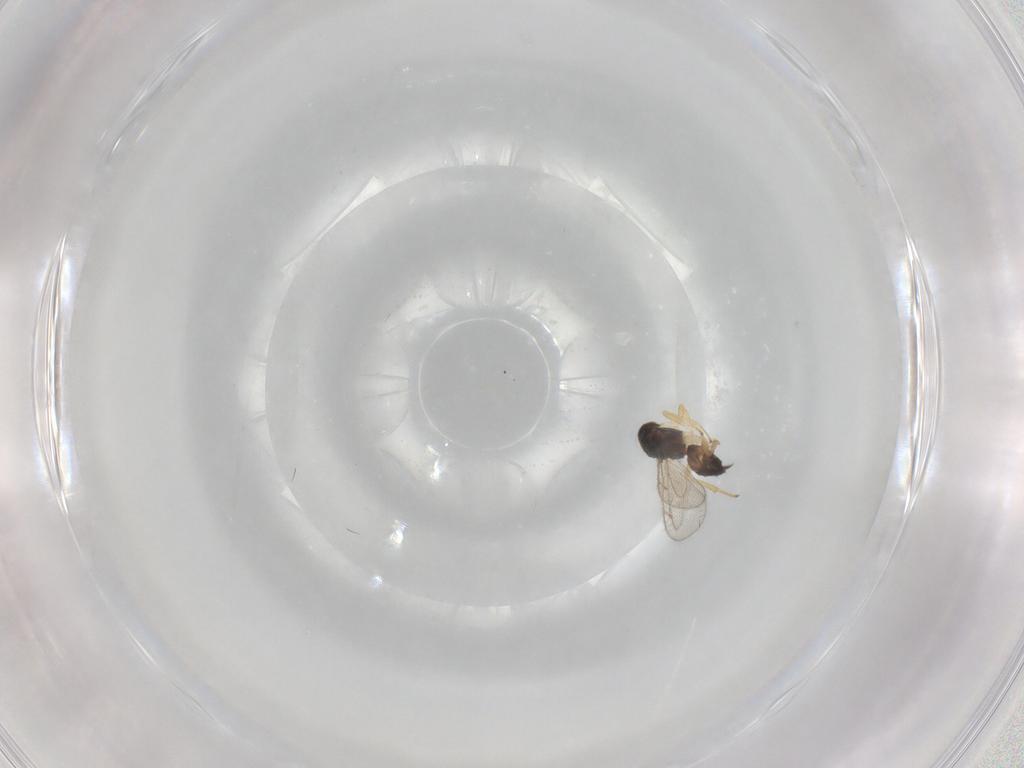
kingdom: Animalia
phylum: Arthropoda
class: Insecta
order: Hymenoptera
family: Eulophidae
